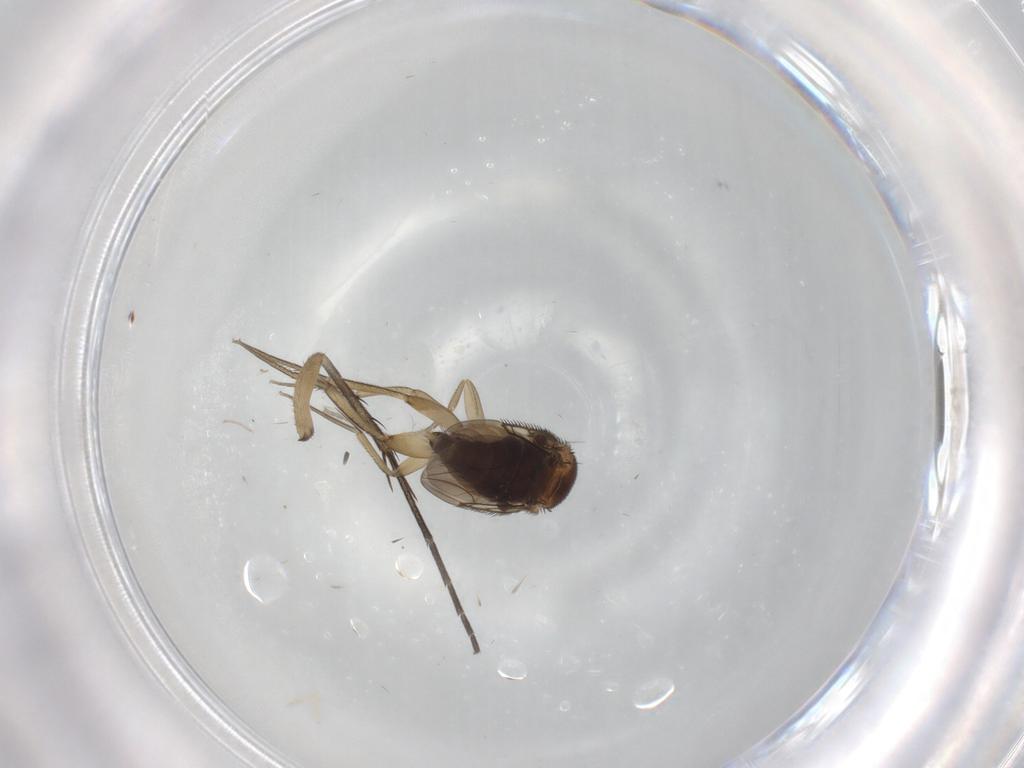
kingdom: Animalia
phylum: Arthropoda
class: Insecta
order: Diptera
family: Phoridae
